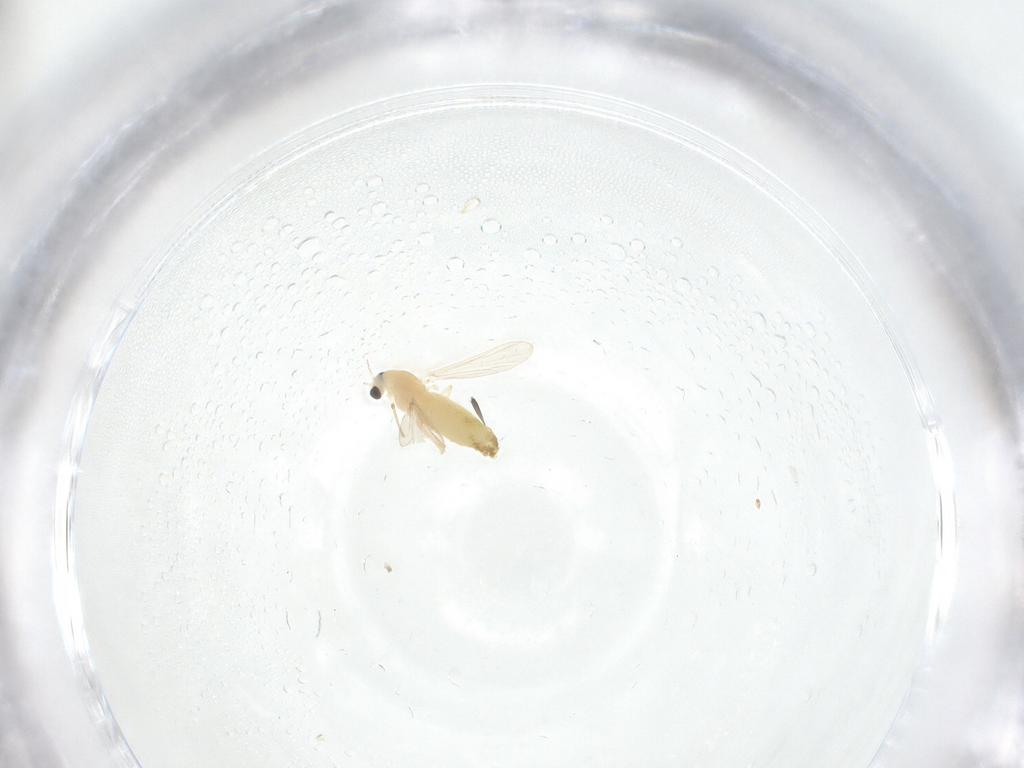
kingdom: Animalia
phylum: Arthropoda
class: Insecta
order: Diptera
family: Chironomidae
